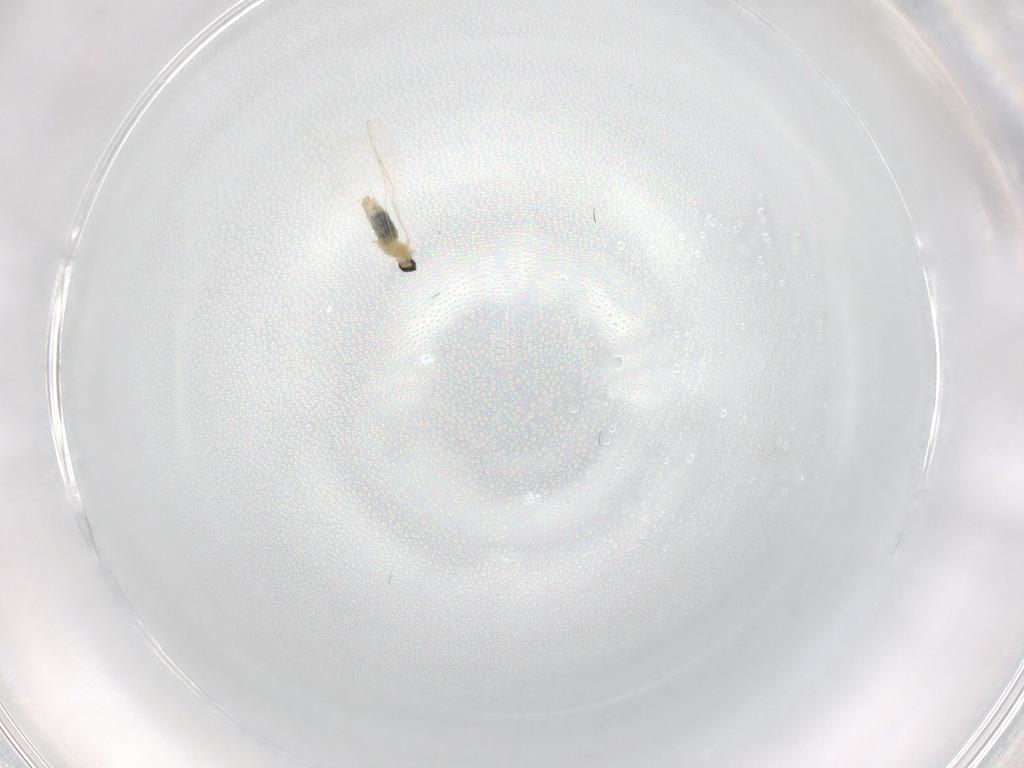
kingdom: Animalia
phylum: Arthropoda
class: Insecta
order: Diptera
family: Cecidomyiidae
